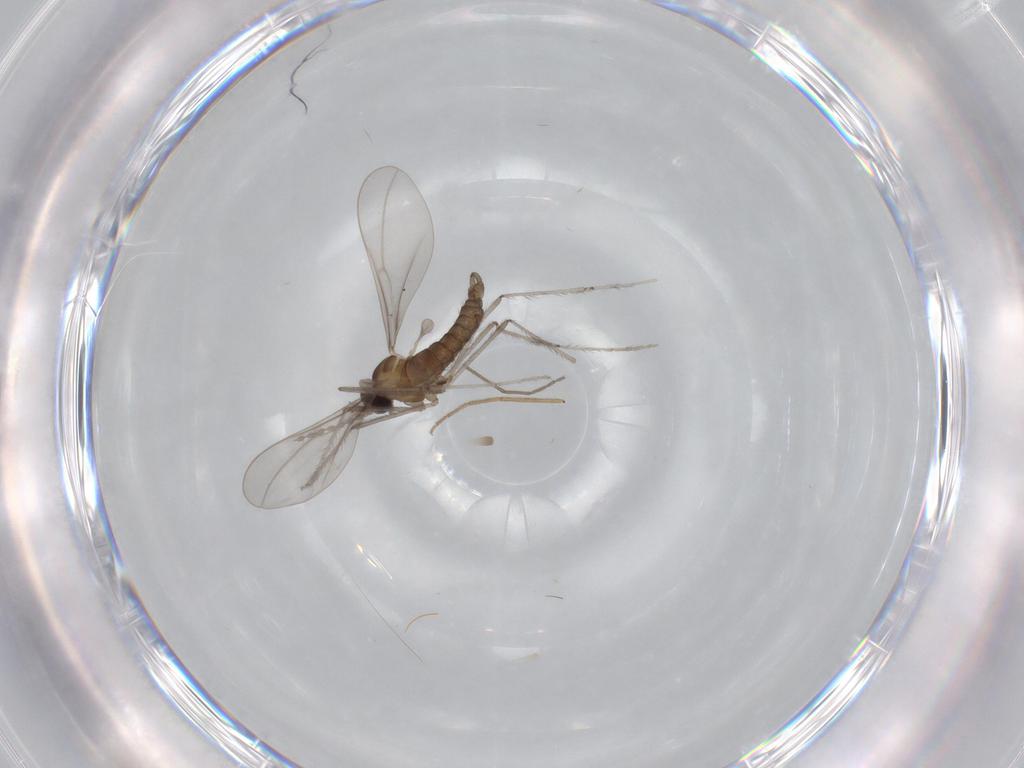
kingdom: Animalia
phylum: Arthropoda
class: Insecta
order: Diptera
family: Chironomidae
